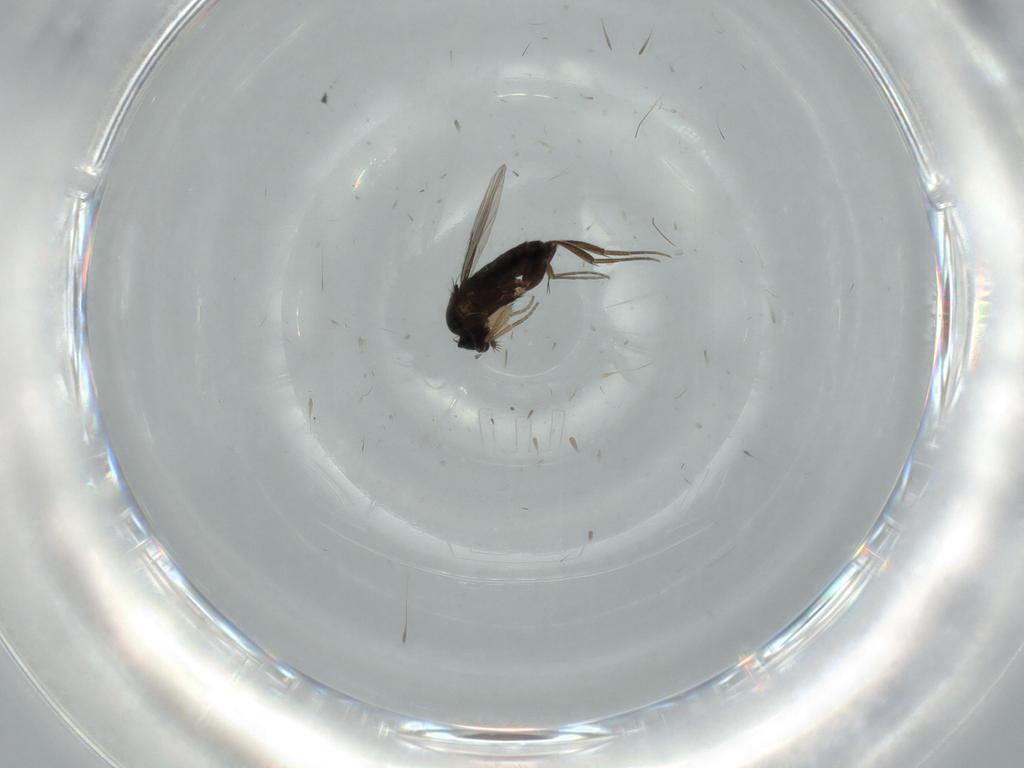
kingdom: Animalia
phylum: Arthropoda
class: Insecta
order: Diptera
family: Phoridae
